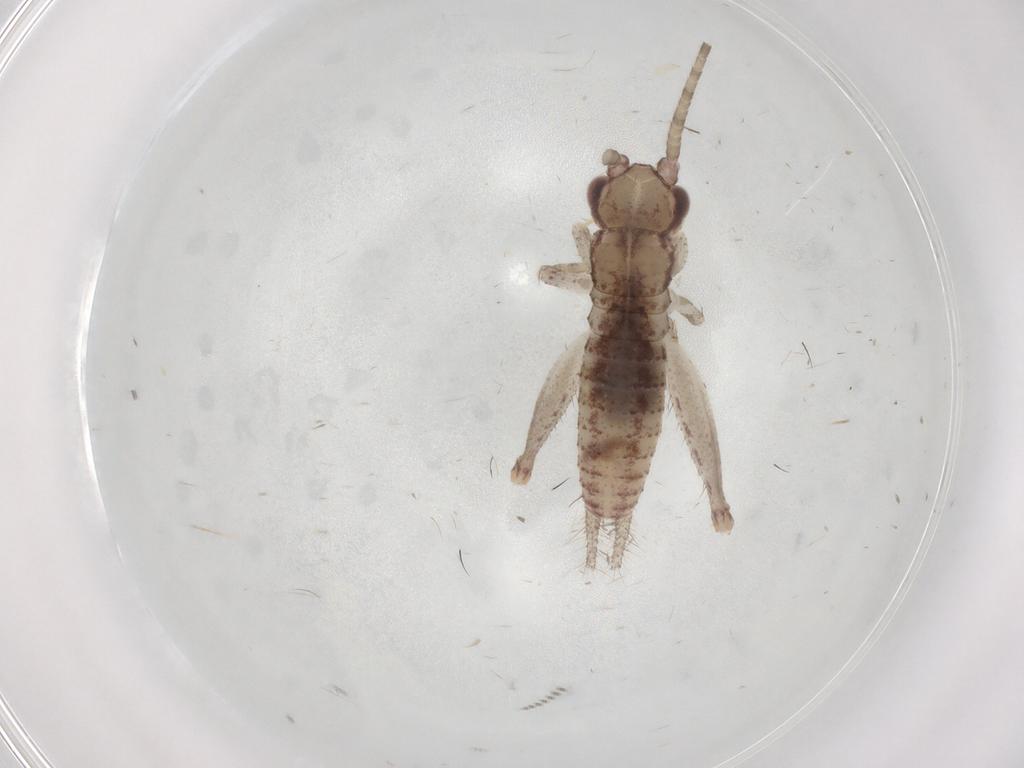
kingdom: Animalia
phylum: Arthropoda
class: Insecta
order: Orthoptera
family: Gryllidae
